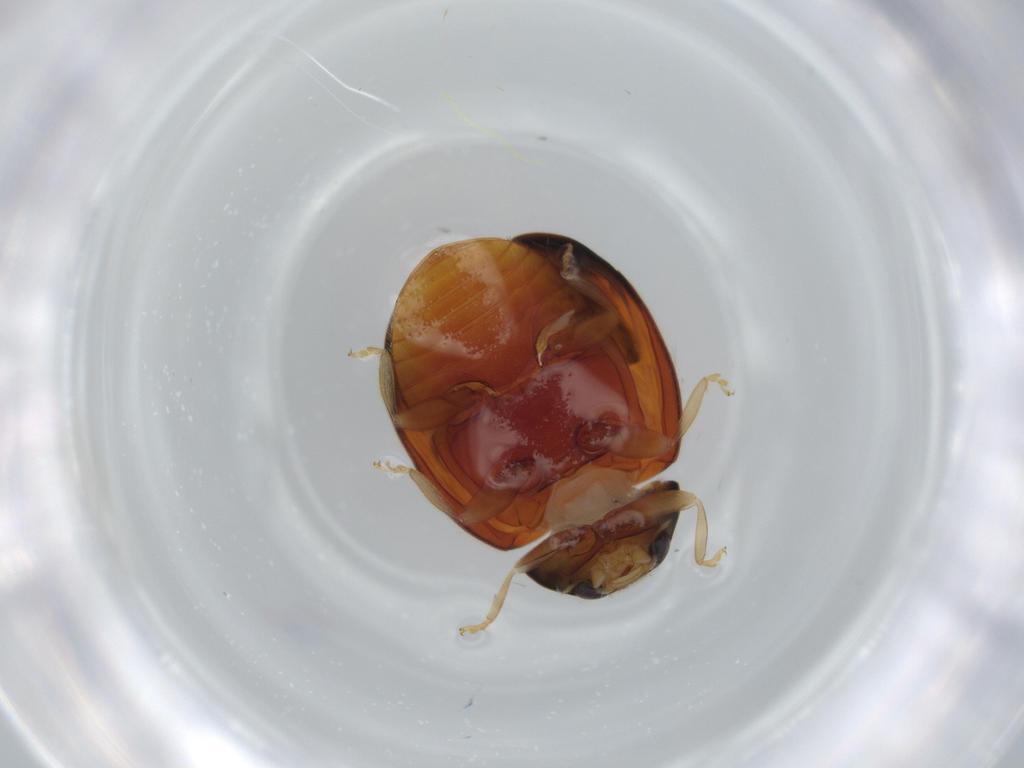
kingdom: Animalia
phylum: Arthropoda
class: Insecta
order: Coleoptera
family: Coccinellidae
